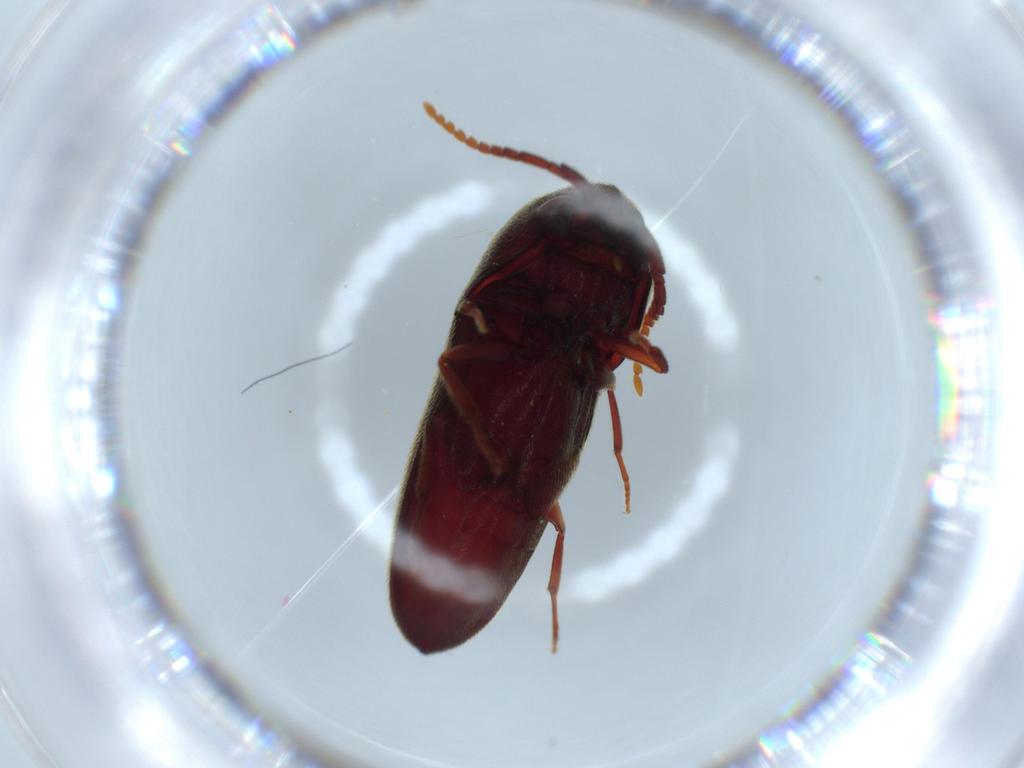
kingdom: Animalia
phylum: Arthropoda
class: Insecta
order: Coleoptera
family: Eucnemidae
